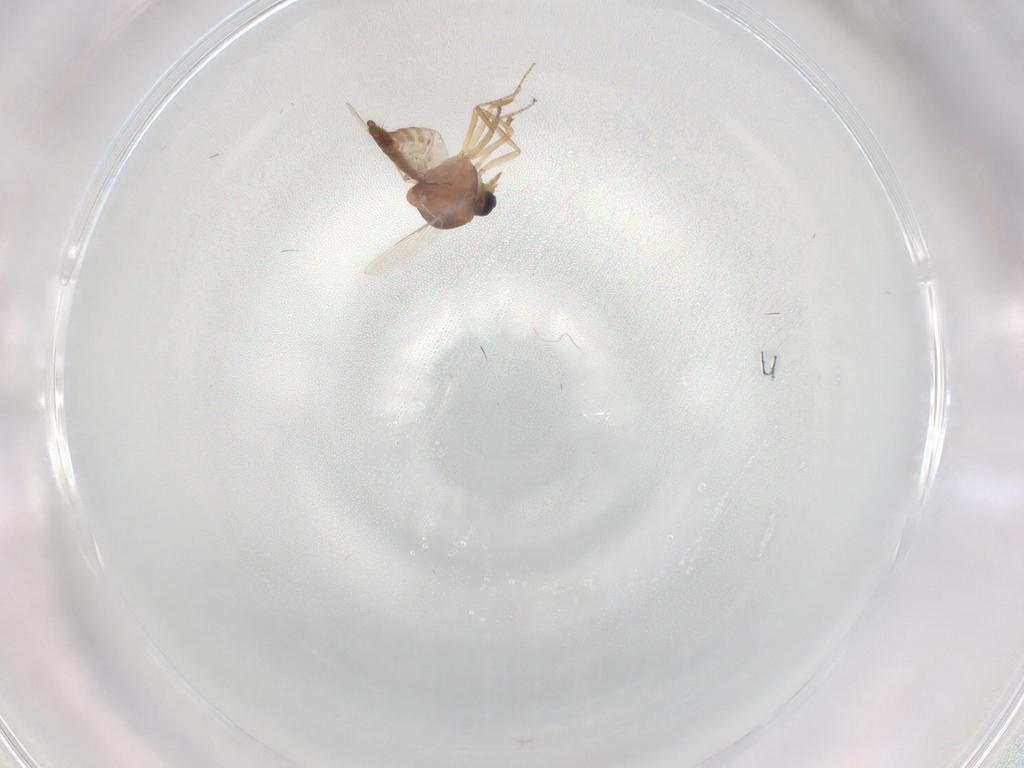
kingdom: Animalia
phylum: Arthropoda
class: Insecta
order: Diptera
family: Ceratopogonidae
